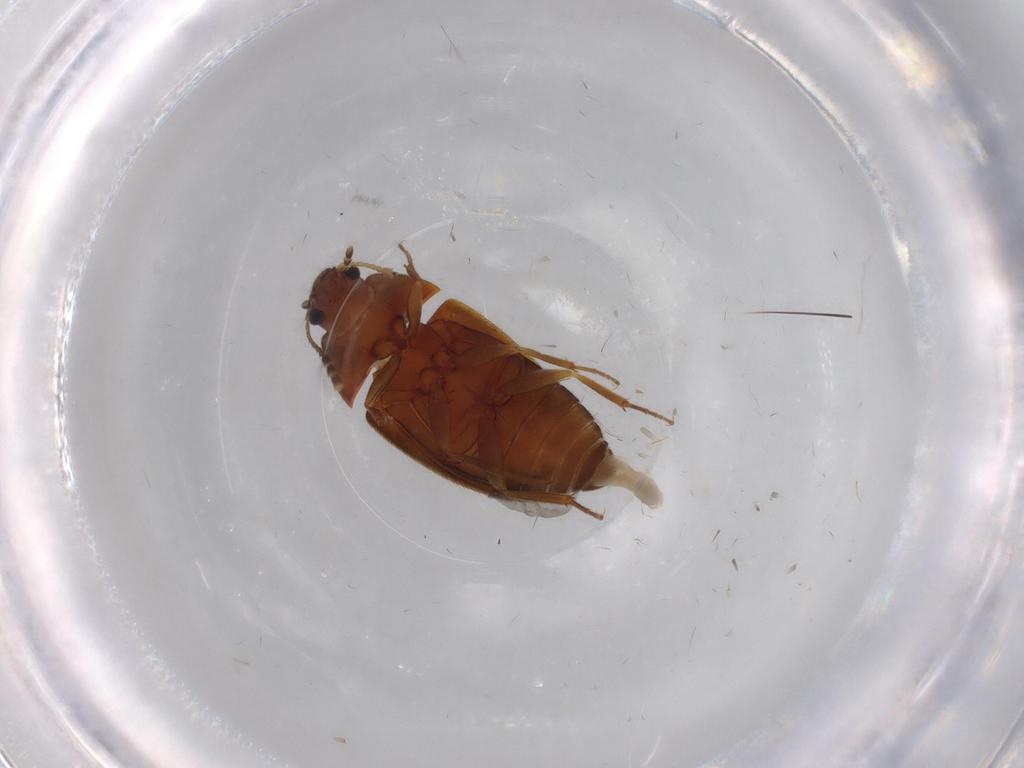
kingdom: Animalia
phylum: Arthropoda
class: Insecta
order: Coleoptera
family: Mycetophagidae
